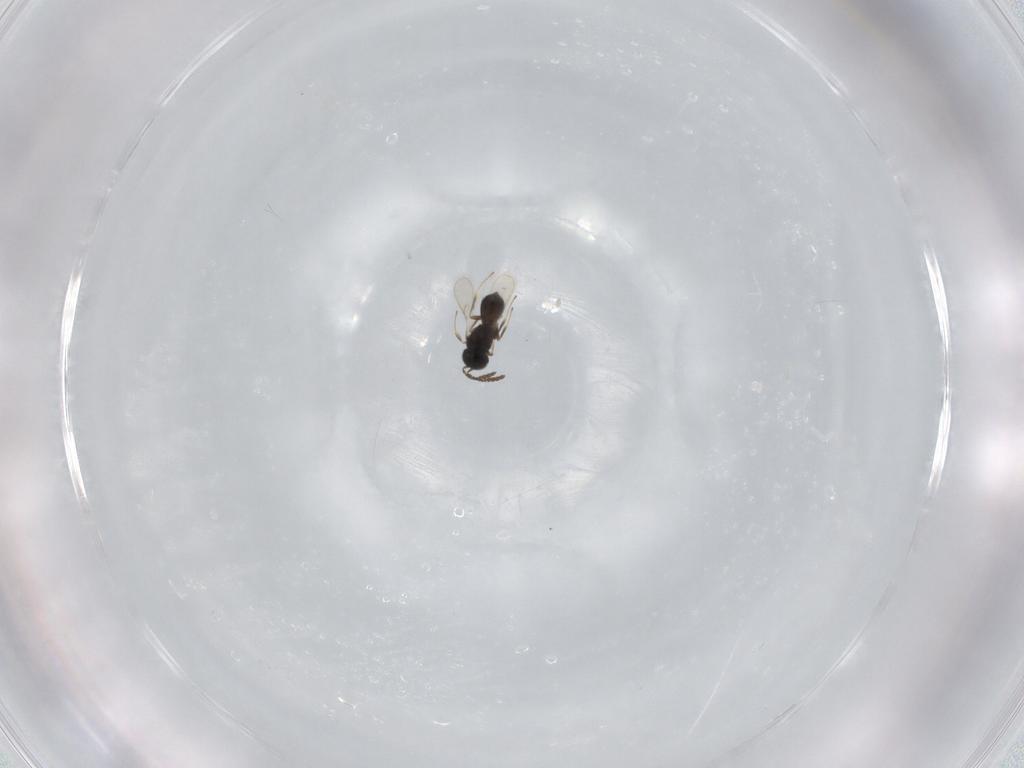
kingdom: Animalia
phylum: Arthropoda
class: Insecta
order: Hymenoptera
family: Scelionidae
